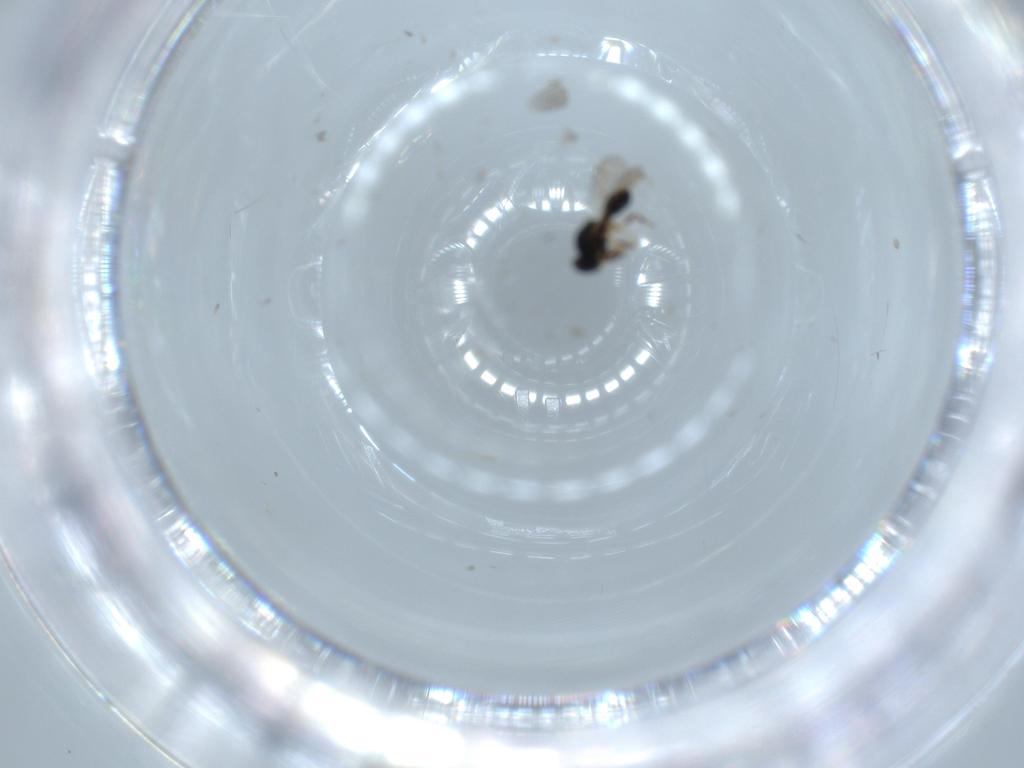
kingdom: Animalia
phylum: Arthropoda
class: Insecta
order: Hymenoptera
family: Platygastridae
